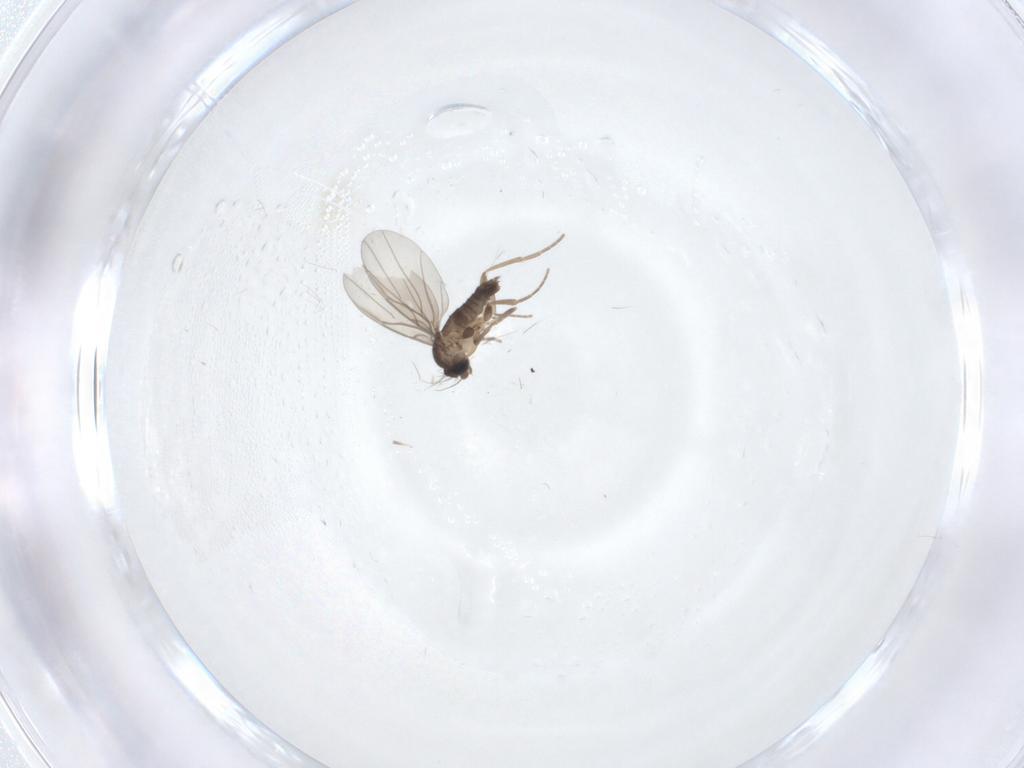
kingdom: Animalia
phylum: Arthropoda
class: Insecta
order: Diptera
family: Phoridae
